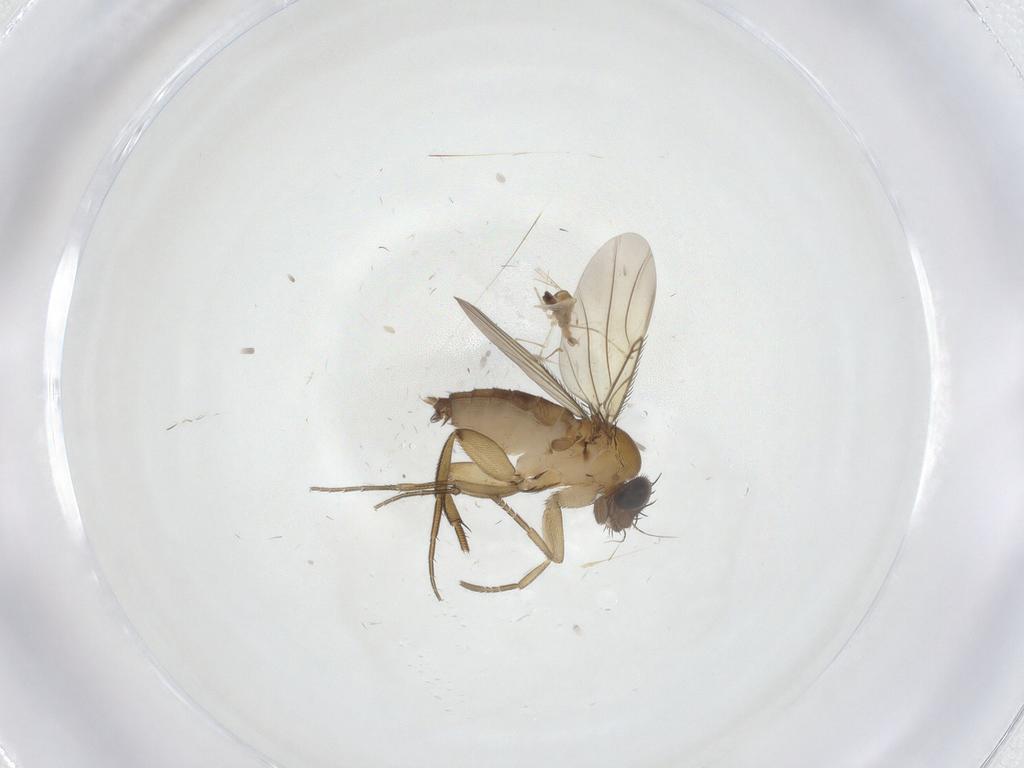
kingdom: Animalia
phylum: Arthropoda
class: Insecta
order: Diptera
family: Phoridae
